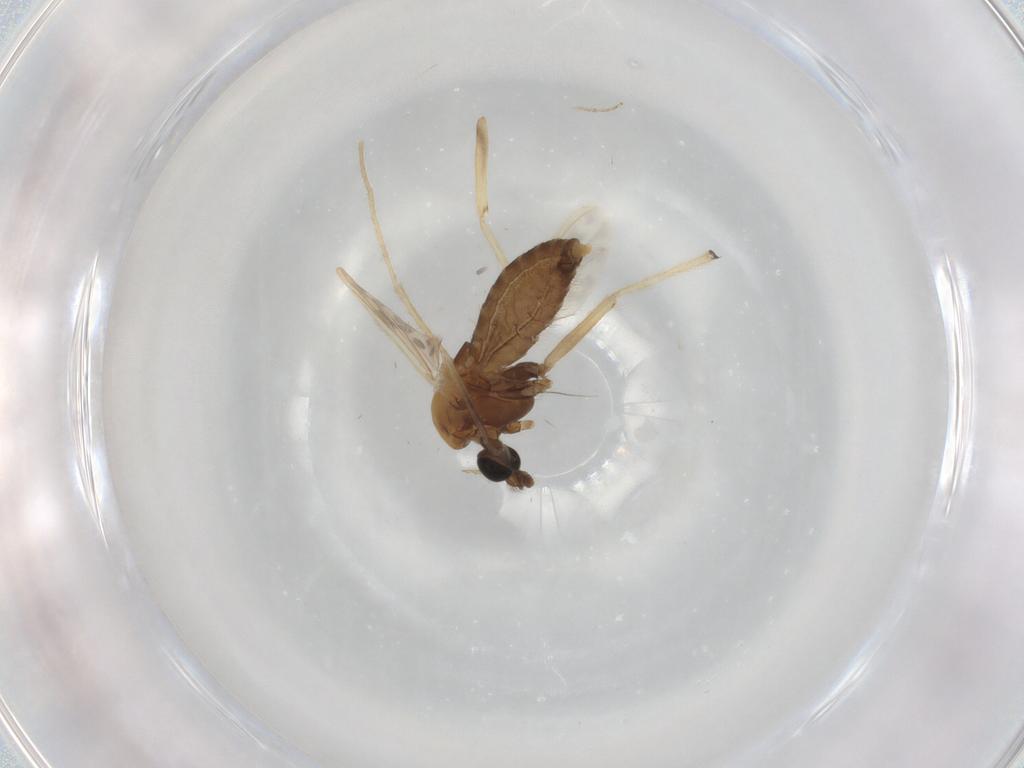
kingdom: Animalia
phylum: Arthropoda
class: Insecta
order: Diptera
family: Chironomidae
